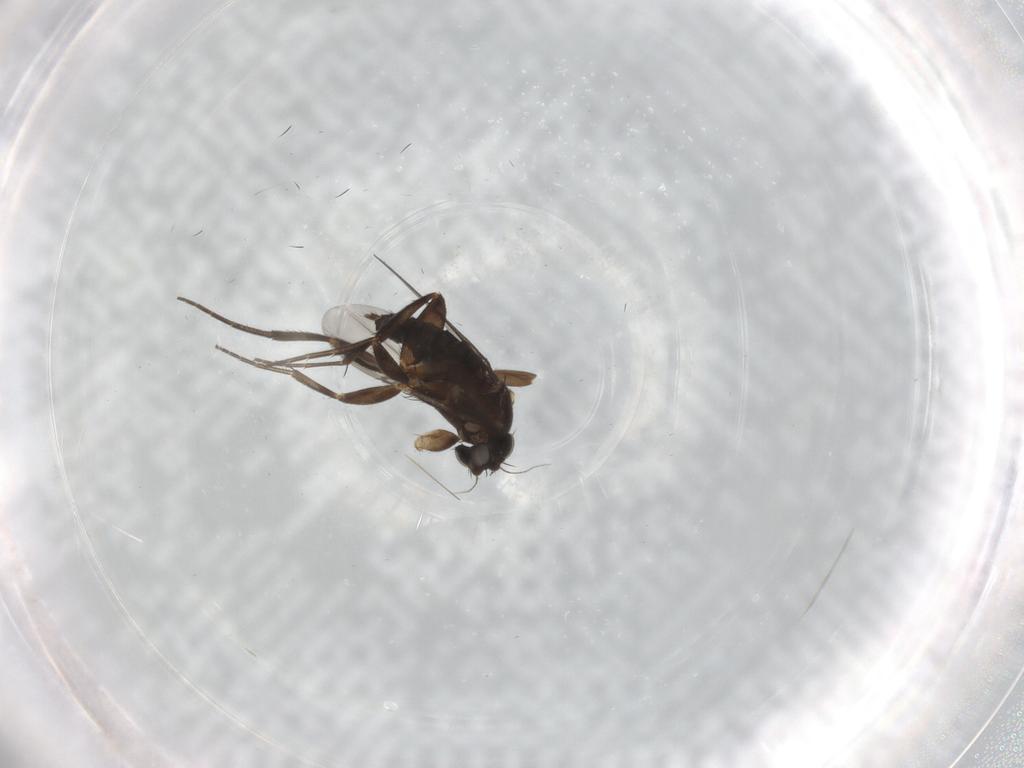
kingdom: Animalia
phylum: Arthropoda
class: Insecta
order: Diptera
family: Phoridae
